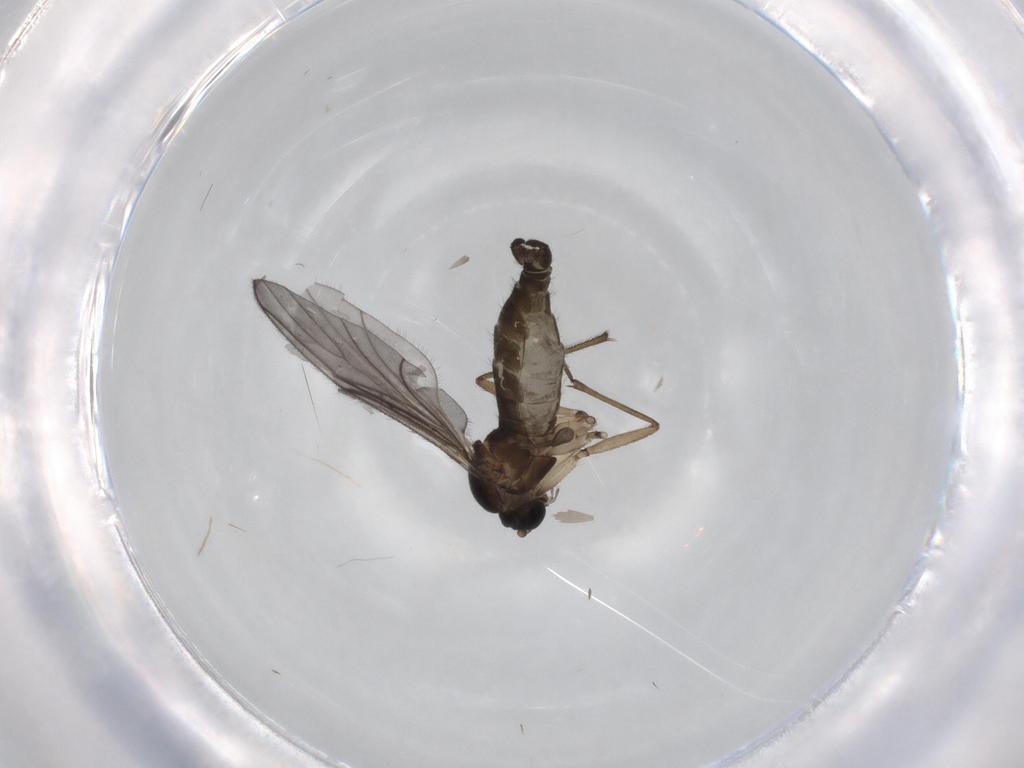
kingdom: Animalia
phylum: Arthropoda
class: Insecta
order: Diptera
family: Sciaridae
